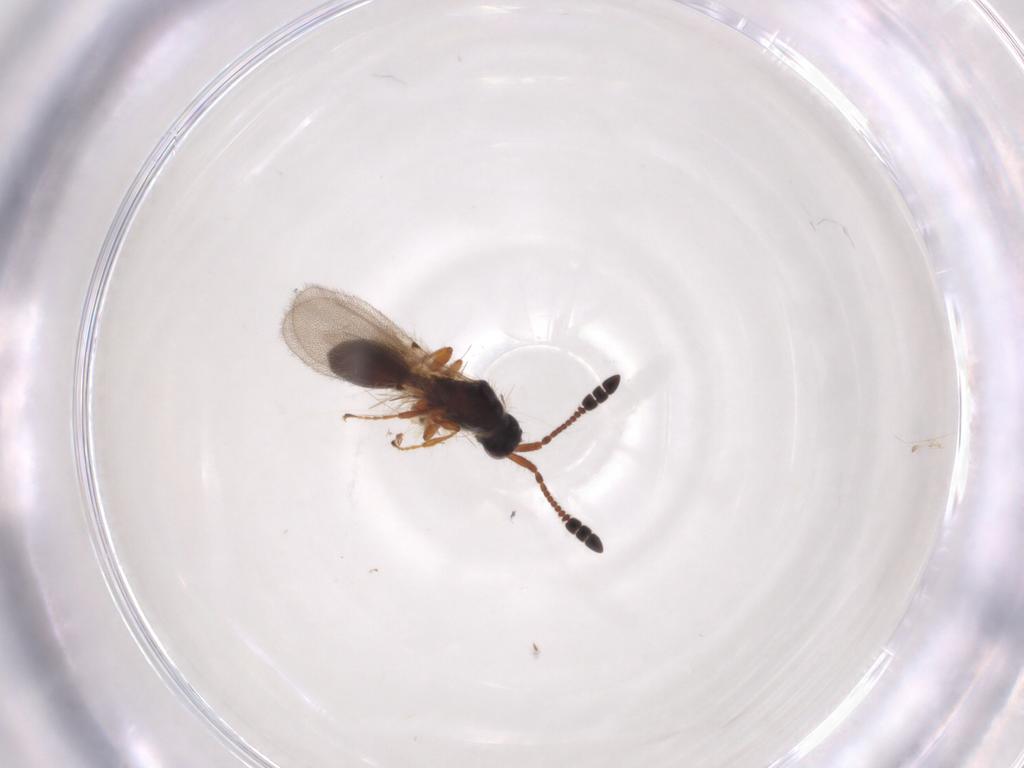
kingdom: Animalia
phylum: Arthropoda
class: Insecta
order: Hymenoptera
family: Diapriidae
